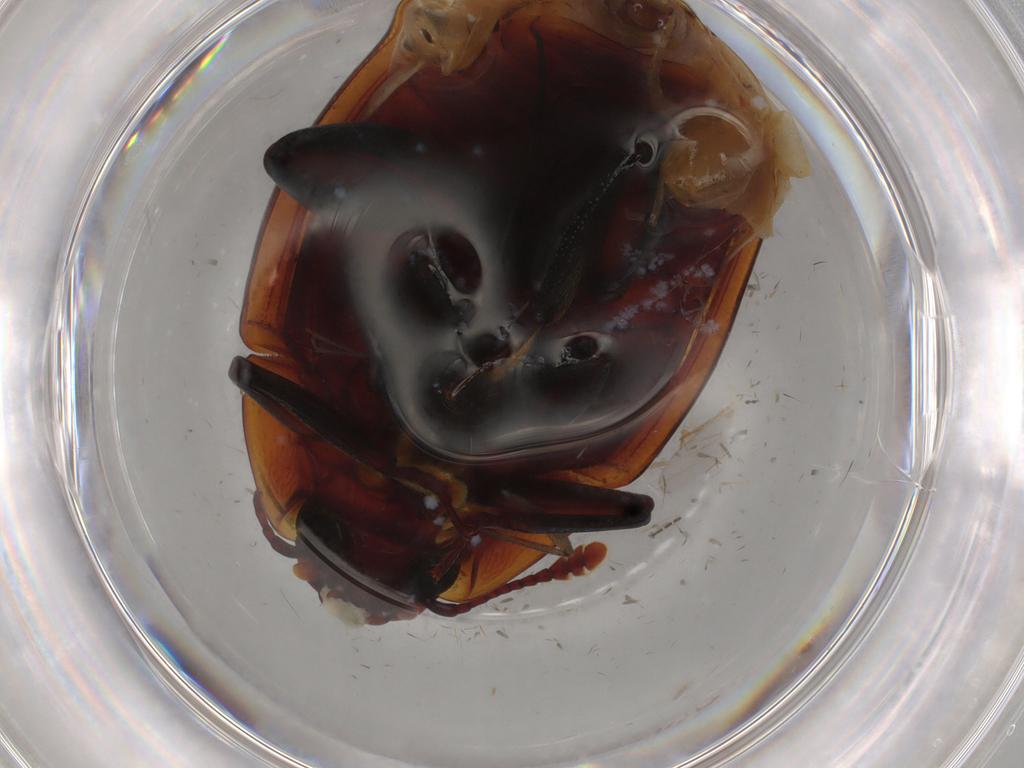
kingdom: Animalia
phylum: Arthropoda
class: Insecta
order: Coleoptera
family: Zopheridae
